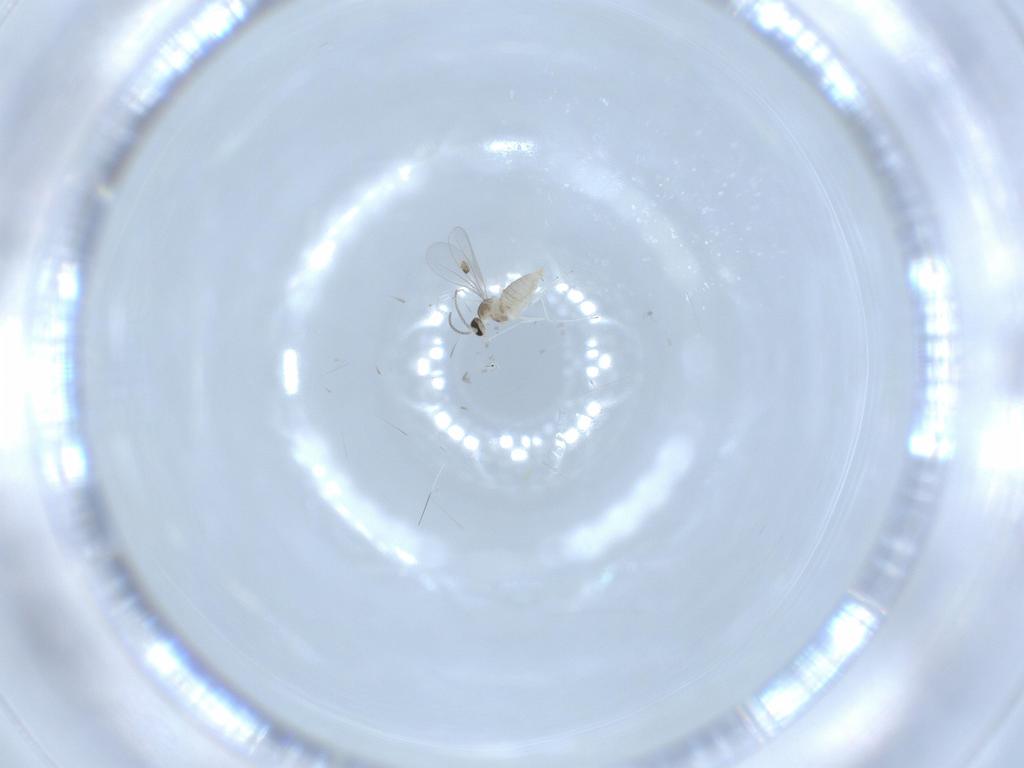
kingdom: Animalia
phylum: Arthropoda
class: Insecta
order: Diptera
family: Cecidomyiidae
